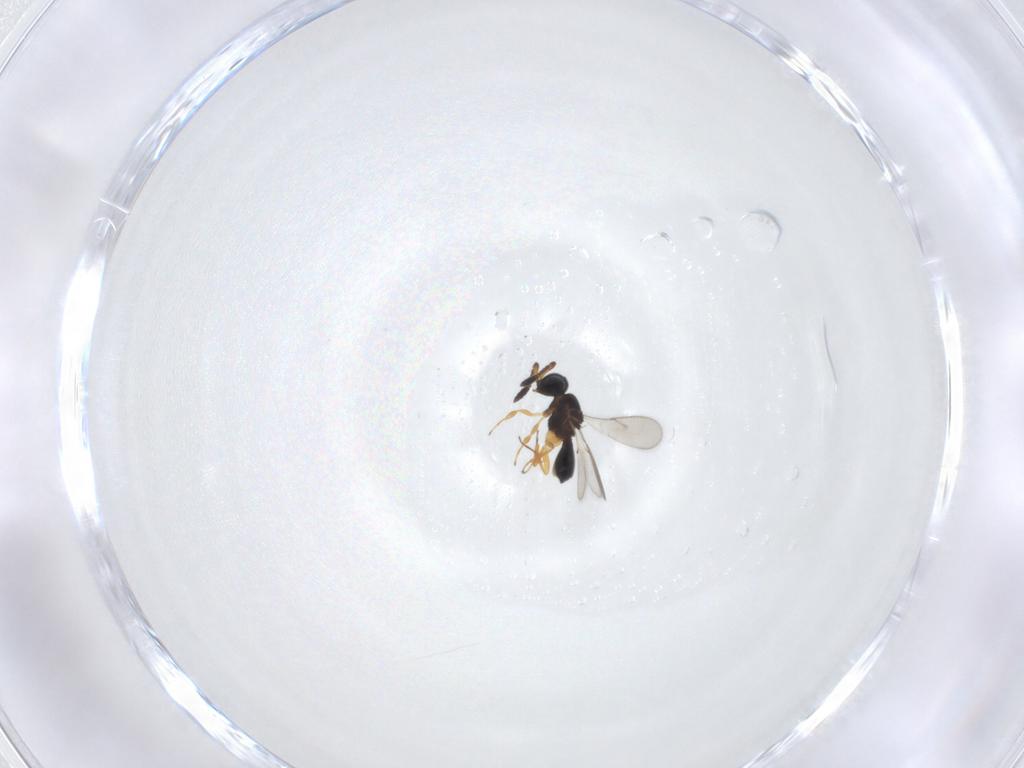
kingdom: Animalia
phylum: Arthropoda
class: Insecta
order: Hymenoptera
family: Scelionidae
